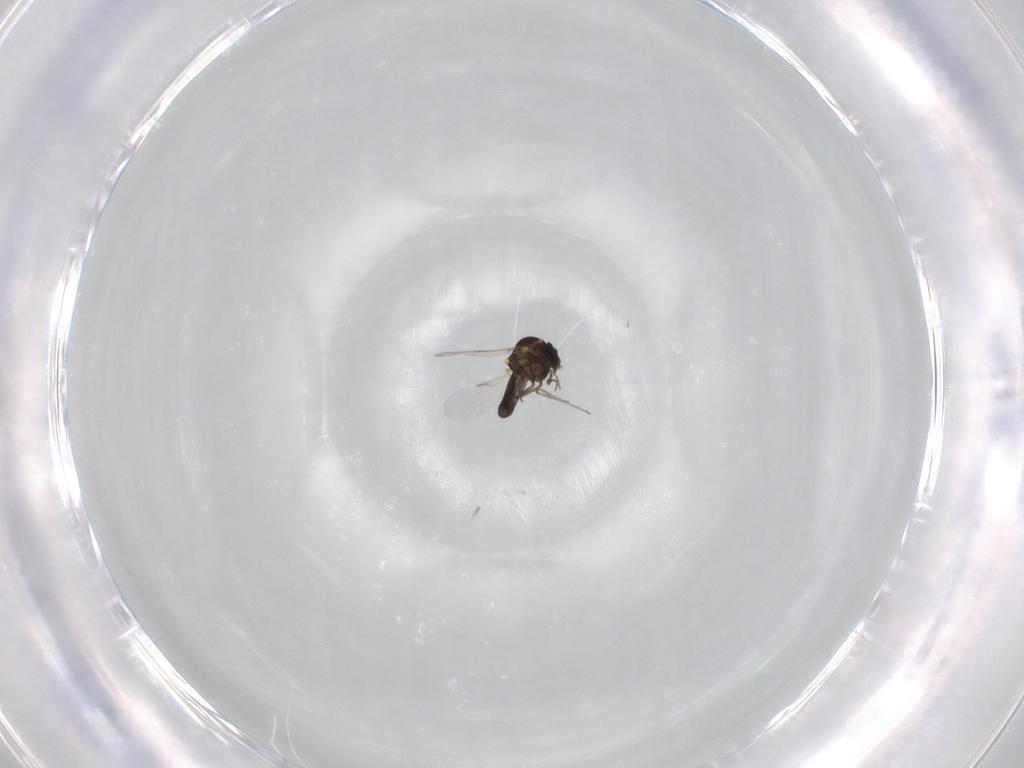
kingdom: Animalia
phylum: Arthropoda
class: Insecta
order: Diptera
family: Ceratopogonidae
